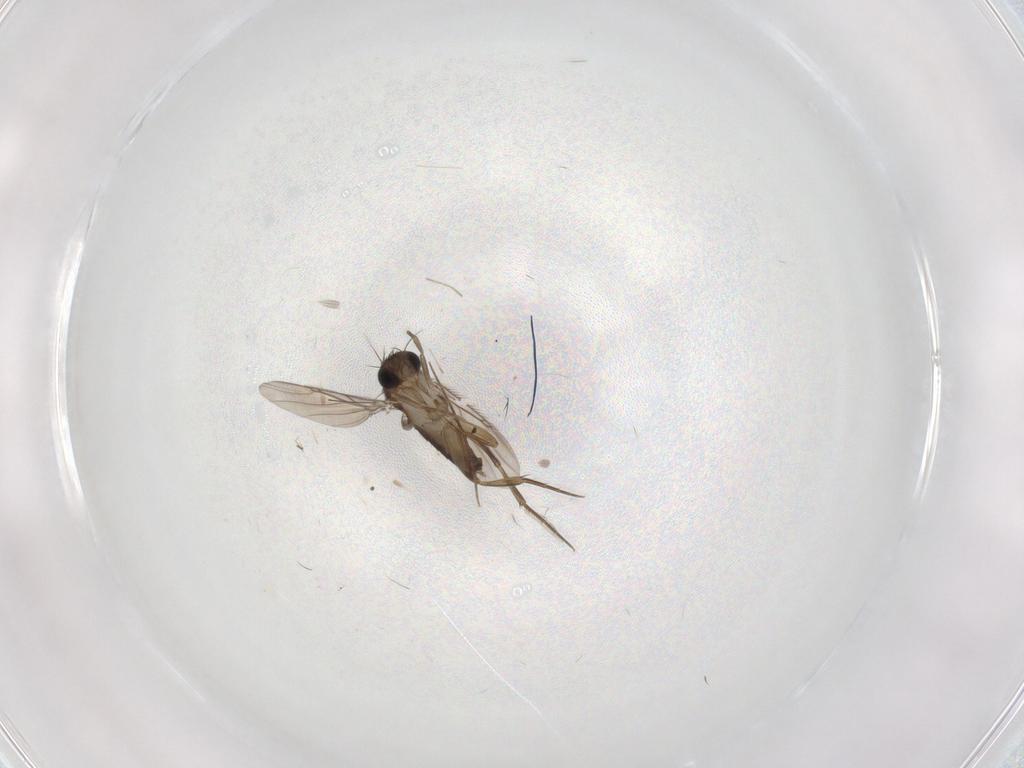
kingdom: Animalia
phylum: Arthropoda
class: Insecta
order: Diptera
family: Phoridae
